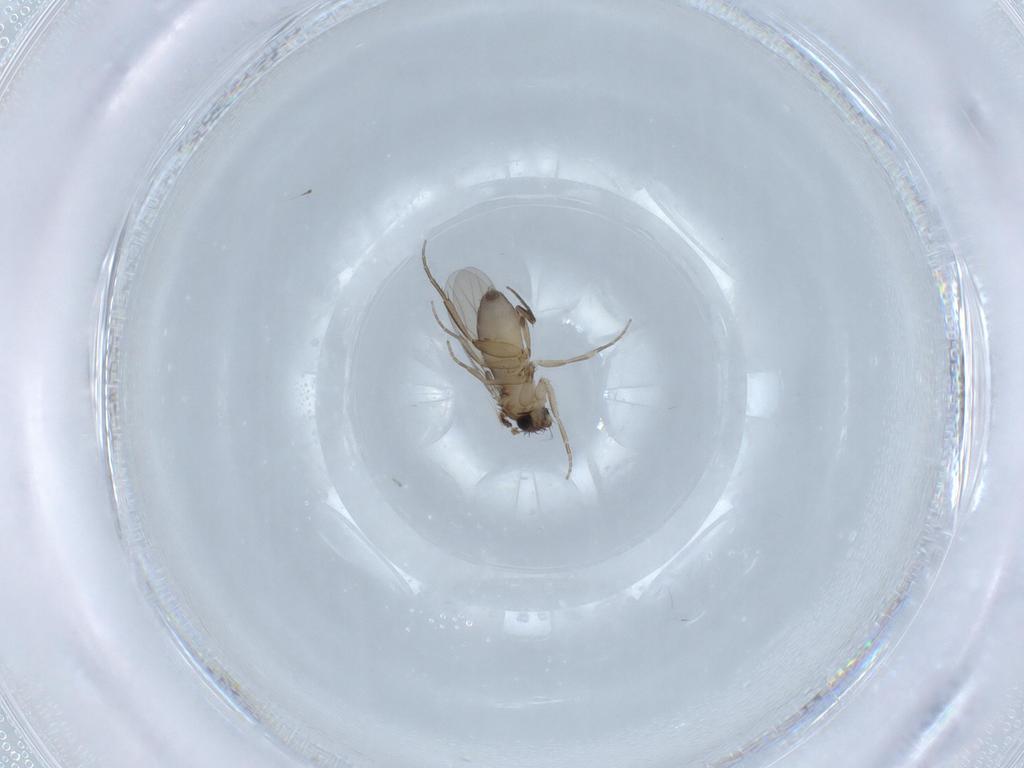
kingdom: Animalia
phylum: Arthropoda
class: Insecta
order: Diptera
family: Phoridae
